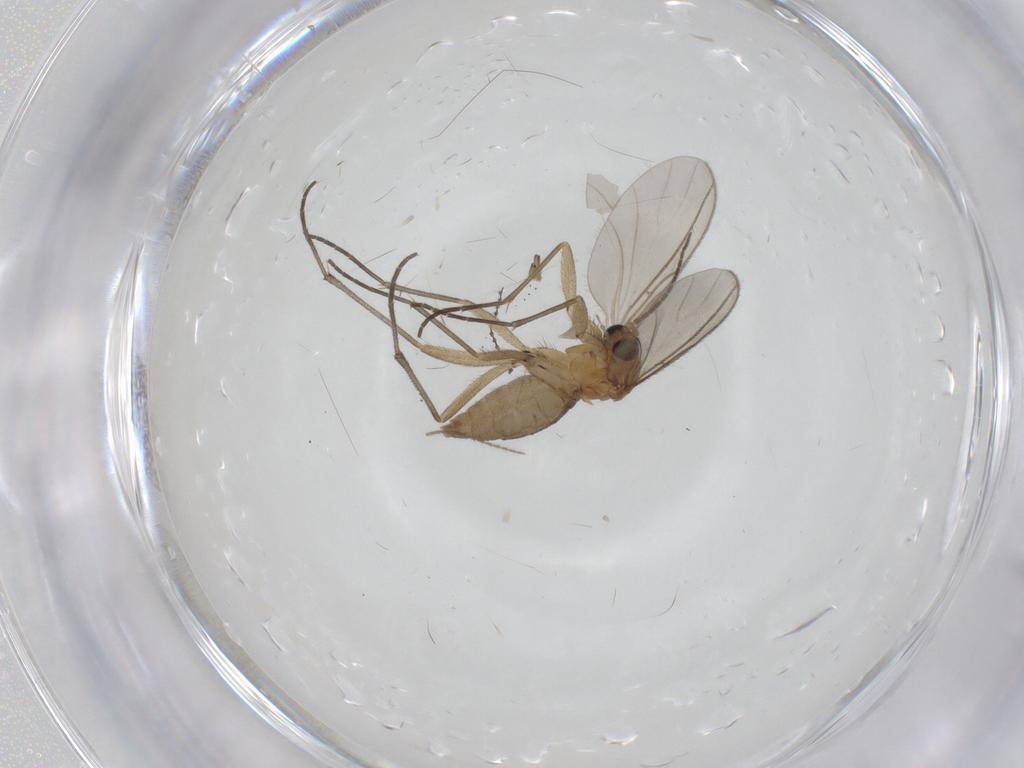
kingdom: Animalia
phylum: Arthropoda
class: Insecta
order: Diptera
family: Sciaridae
